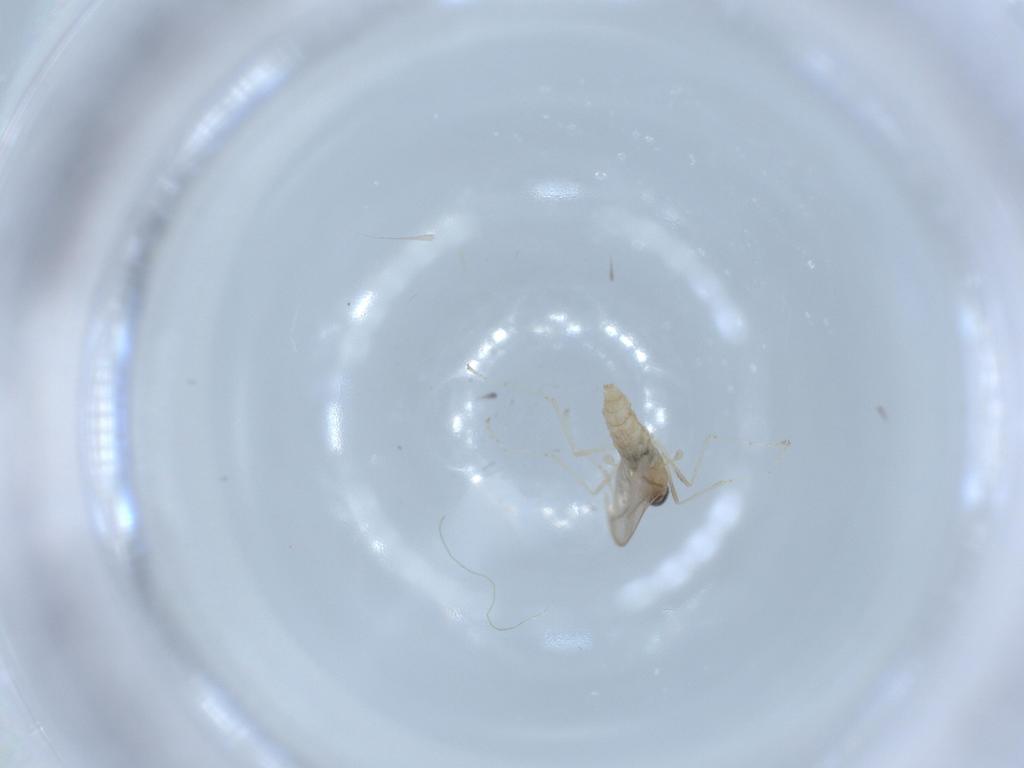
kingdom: Animalia
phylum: Arthropoda
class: Insecta
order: Diptera
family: Cecidomyiidae
